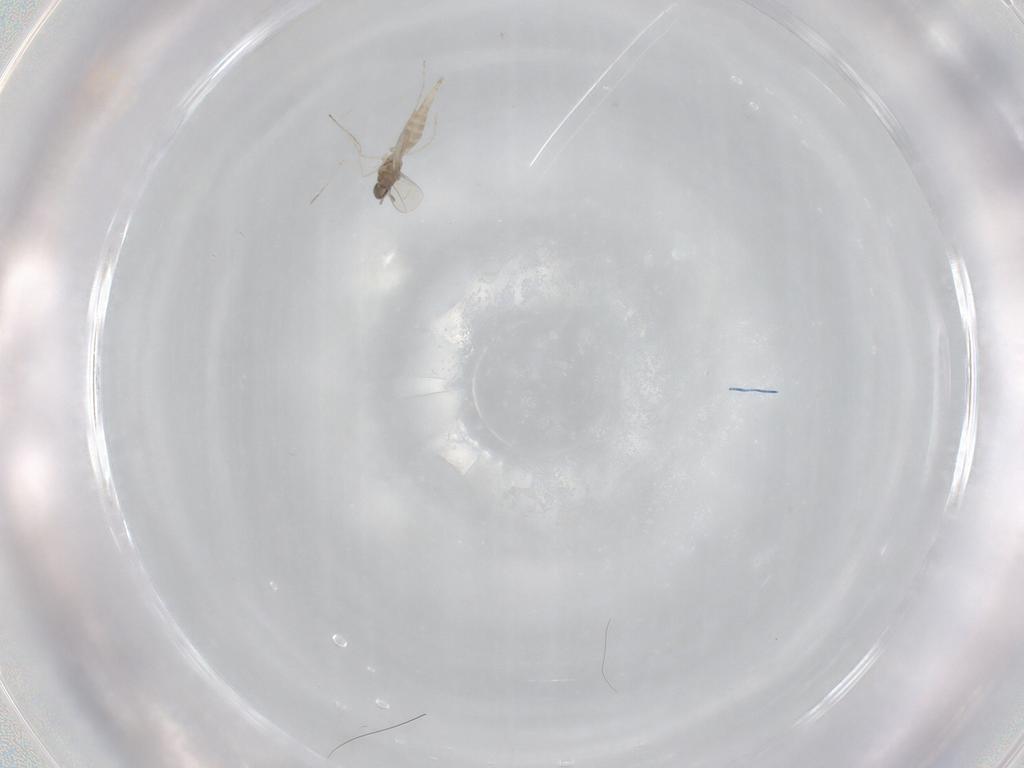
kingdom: Animalia
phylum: Arthropoda
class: Insecta
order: Diptera
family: Cecidomyiidae
